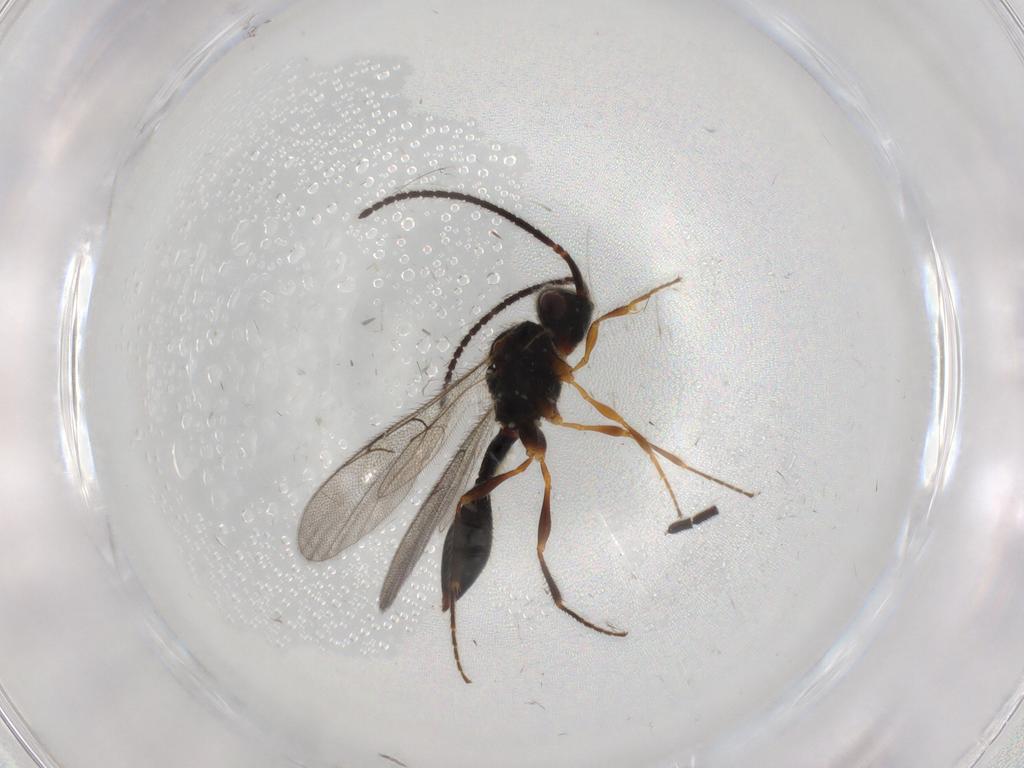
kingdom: Animalia
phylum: Arthropoda
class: Insecta
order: Hymenoptera
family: Diapriidae
